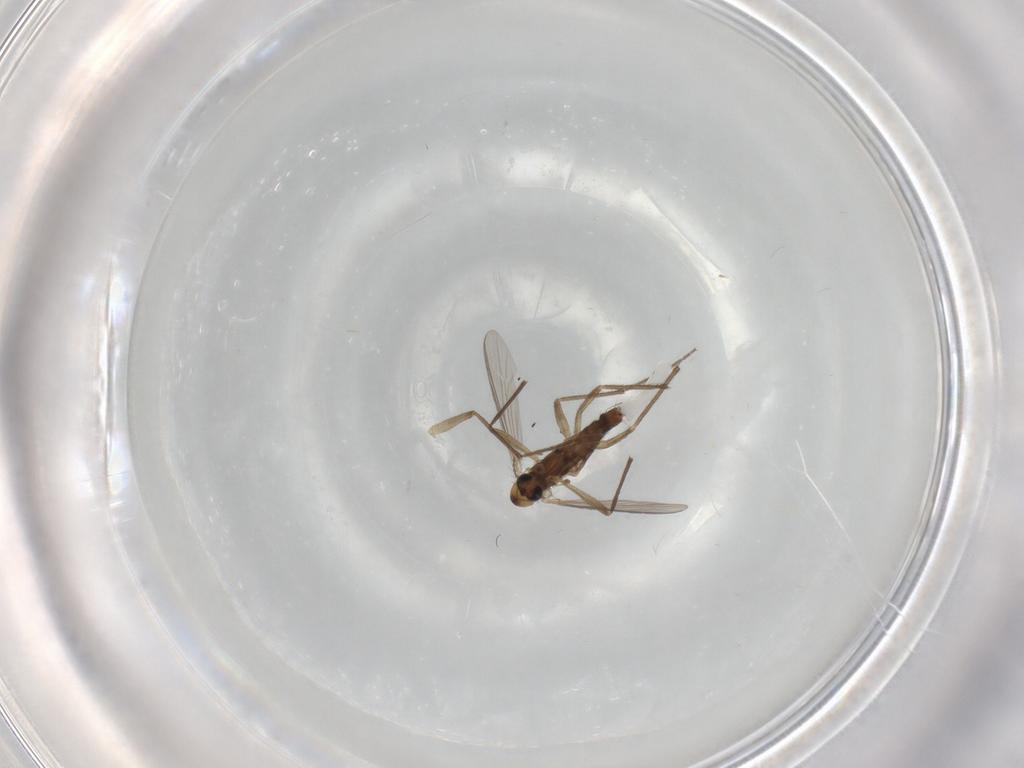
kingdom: Animalia
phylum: Arthropoda
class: Insecta
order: Diptera
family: Chironomidae
